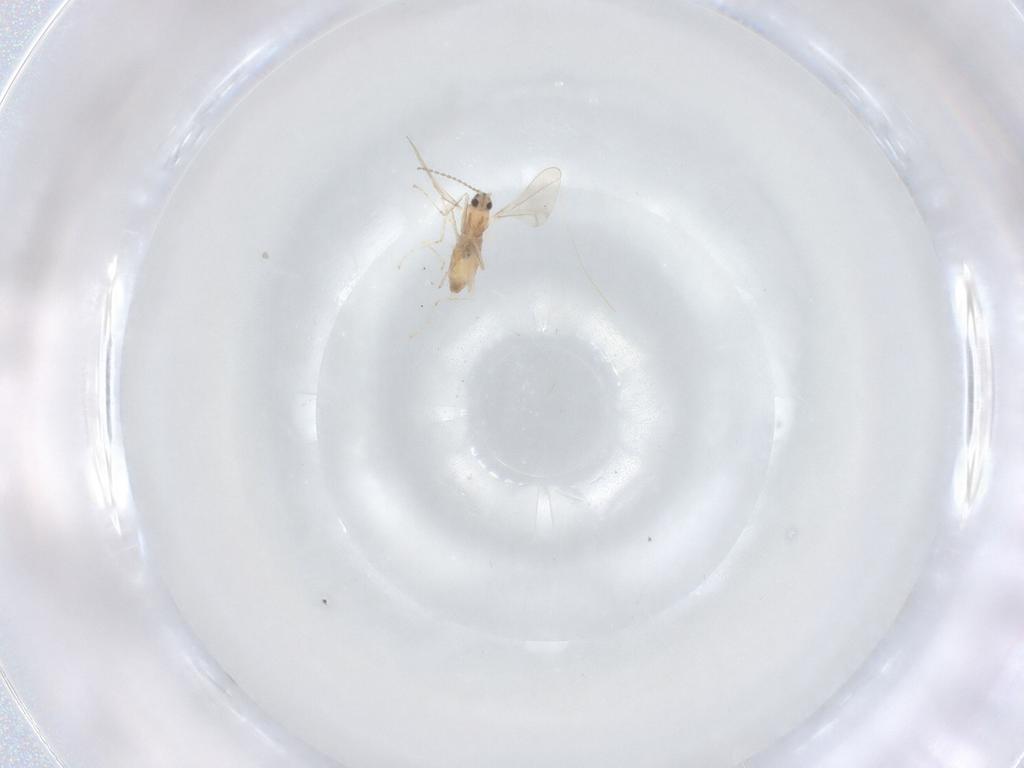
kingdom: Animalia
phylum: Arthropoda
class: Insecta
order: Diptera
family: Cecidomyiidae
